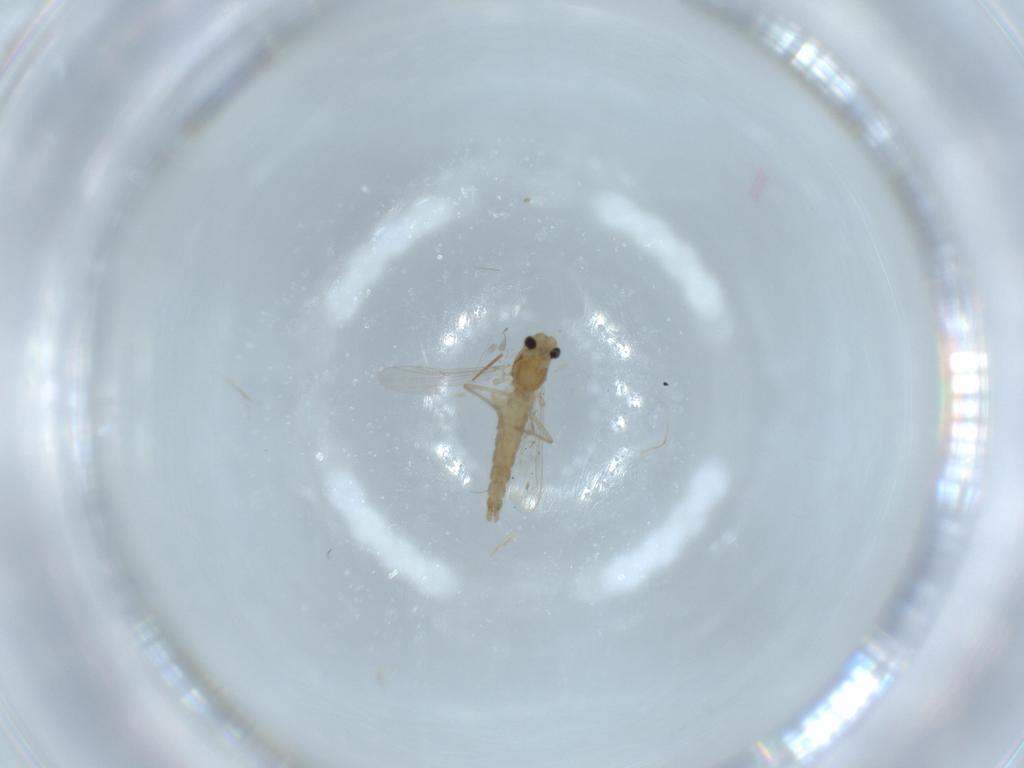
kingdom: Animalia
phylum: Arthropoda
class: Insecta
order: Diptera
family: Chironomidae
